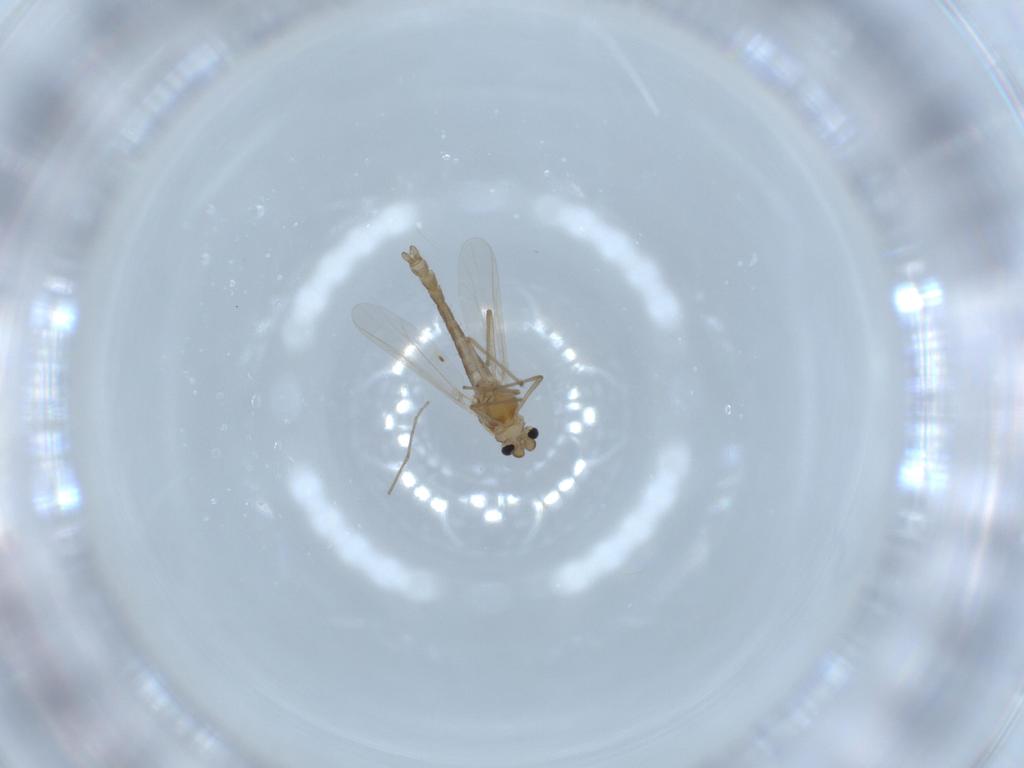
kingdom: Animalia
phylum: Arthropoda
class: Insecta
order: Diptera
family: Chironomidae
